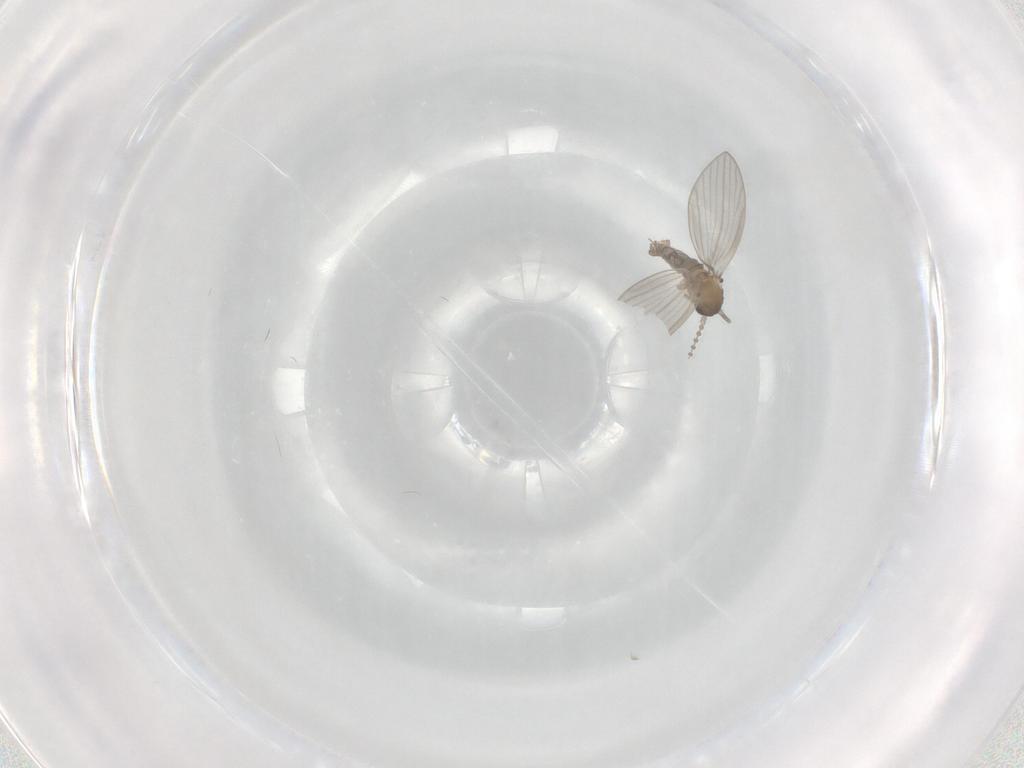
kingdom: Animalia
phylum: Arthropoda
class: Insecta
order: Diptera
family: Psychodidae
